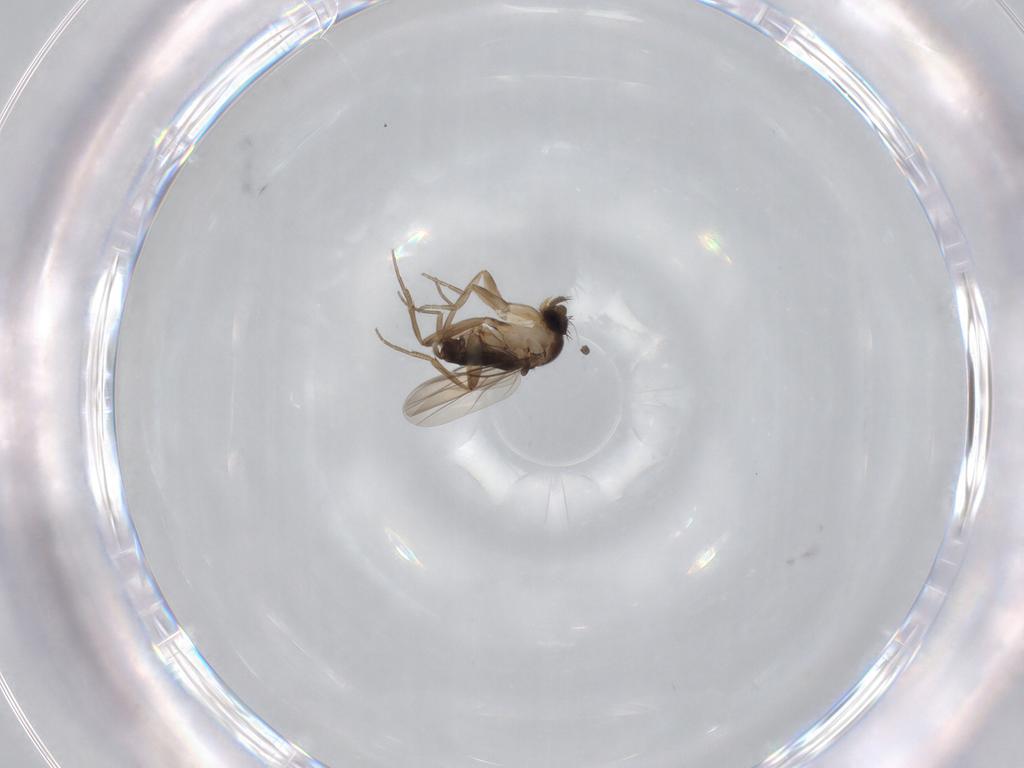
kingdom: Animalia
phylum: Arthropoda
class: Insecta
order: Diptera
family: Phoridae
